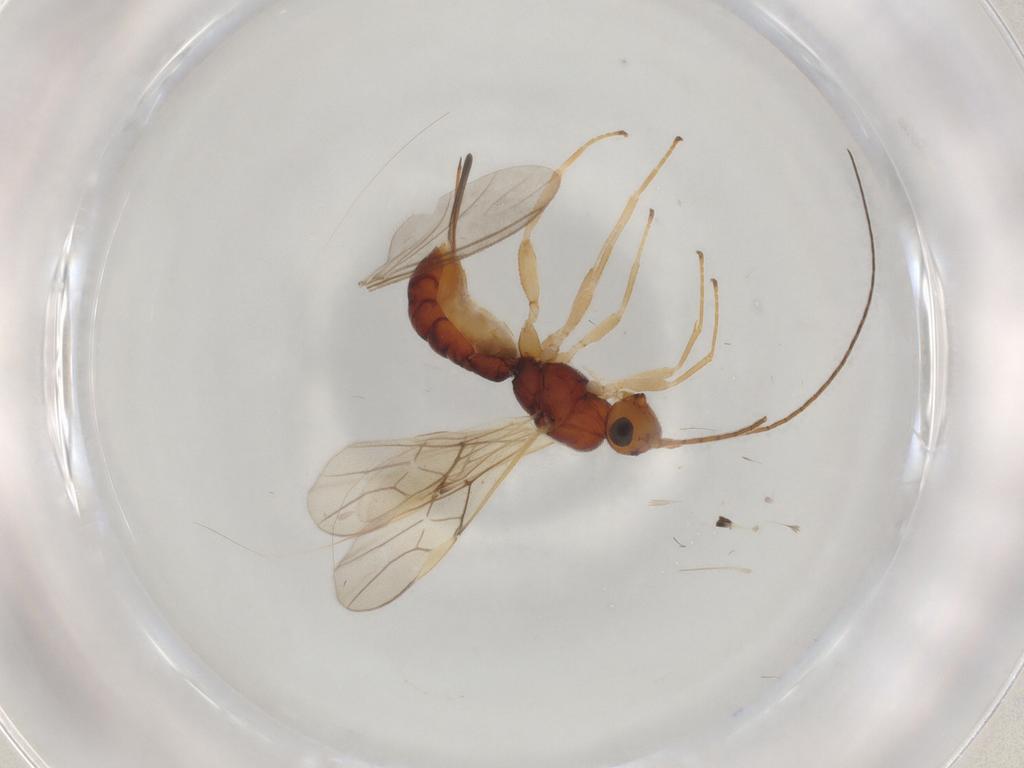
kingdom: Animalia
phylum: Arthropoda
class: Insecta
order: Hymenoptera
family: Braconidae
